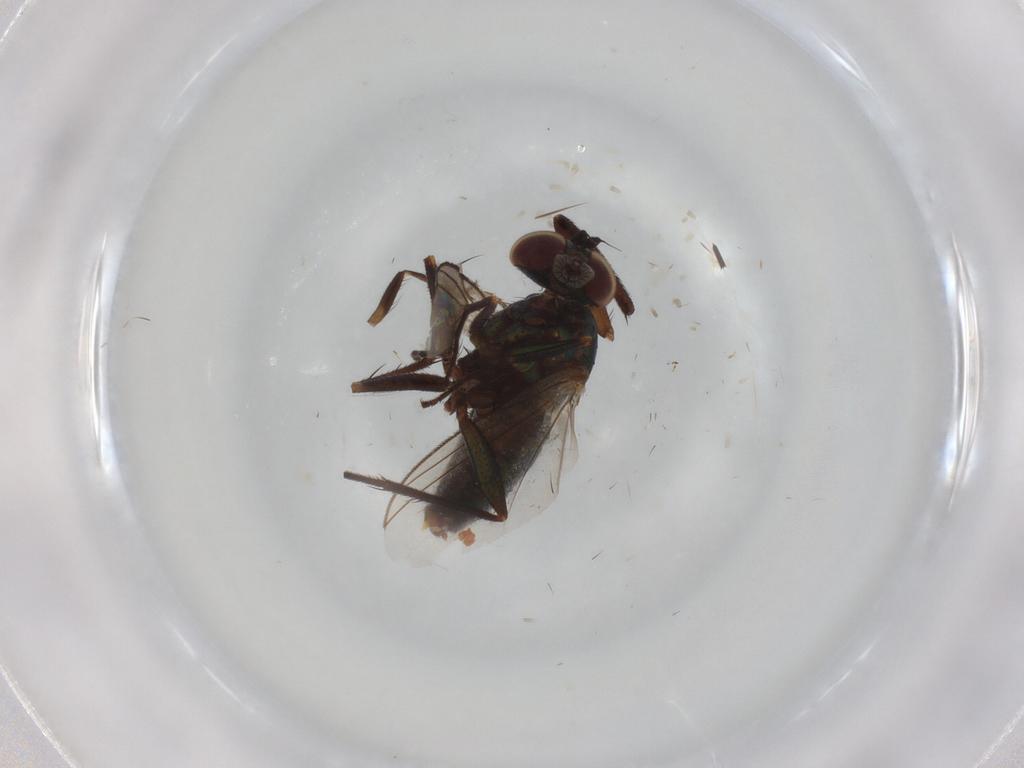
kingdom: Animalia
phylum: Arthropoda
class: Insecta
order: Diptera
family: Dolichopodidae
